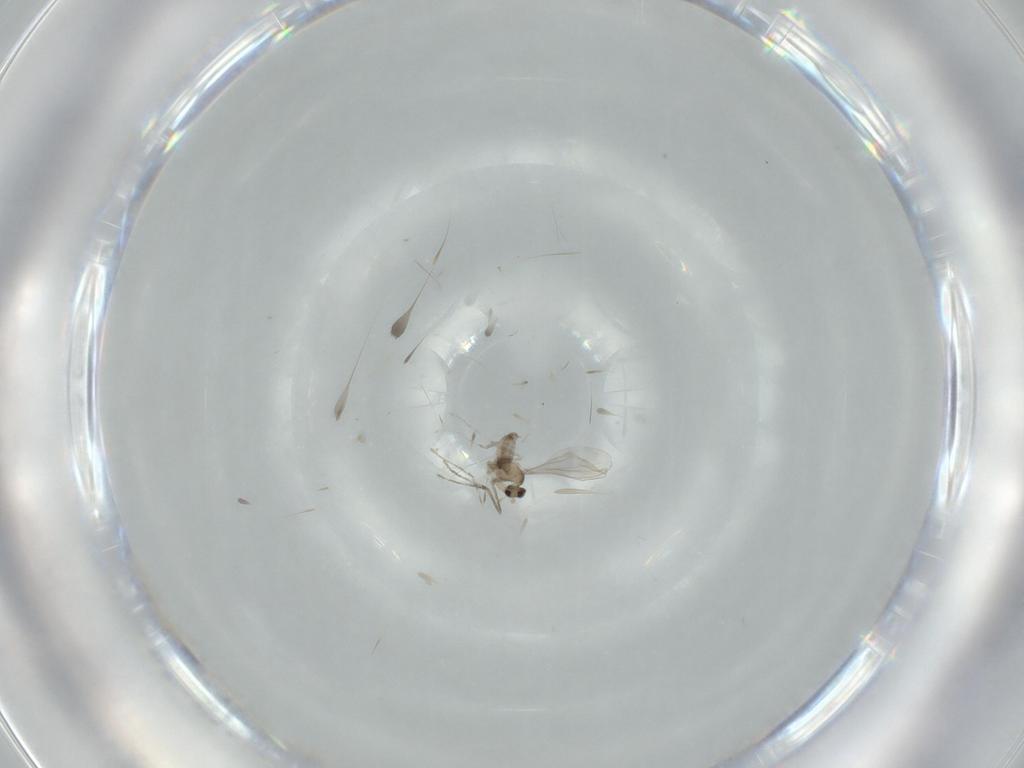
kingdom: Animalia
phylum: Arthropoda
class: Insecta
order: Diptera
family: Cecidomyiidae
